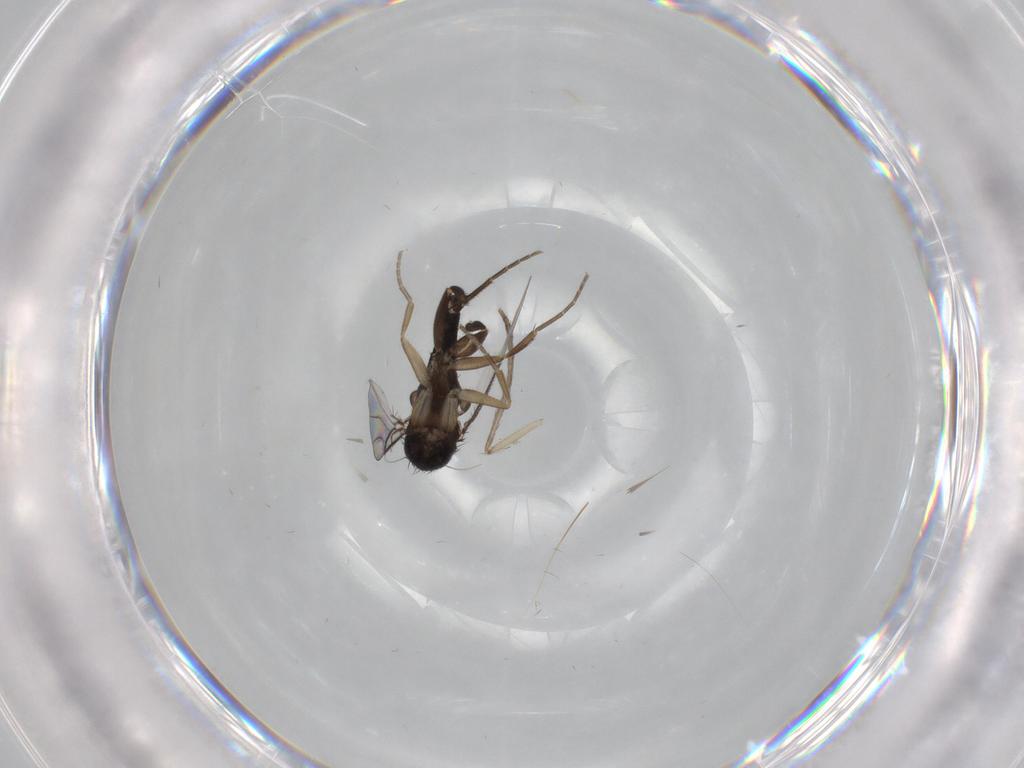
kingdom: Animalia
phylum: Arthropoda
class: Insecta
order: Diptera
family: Phoridae
